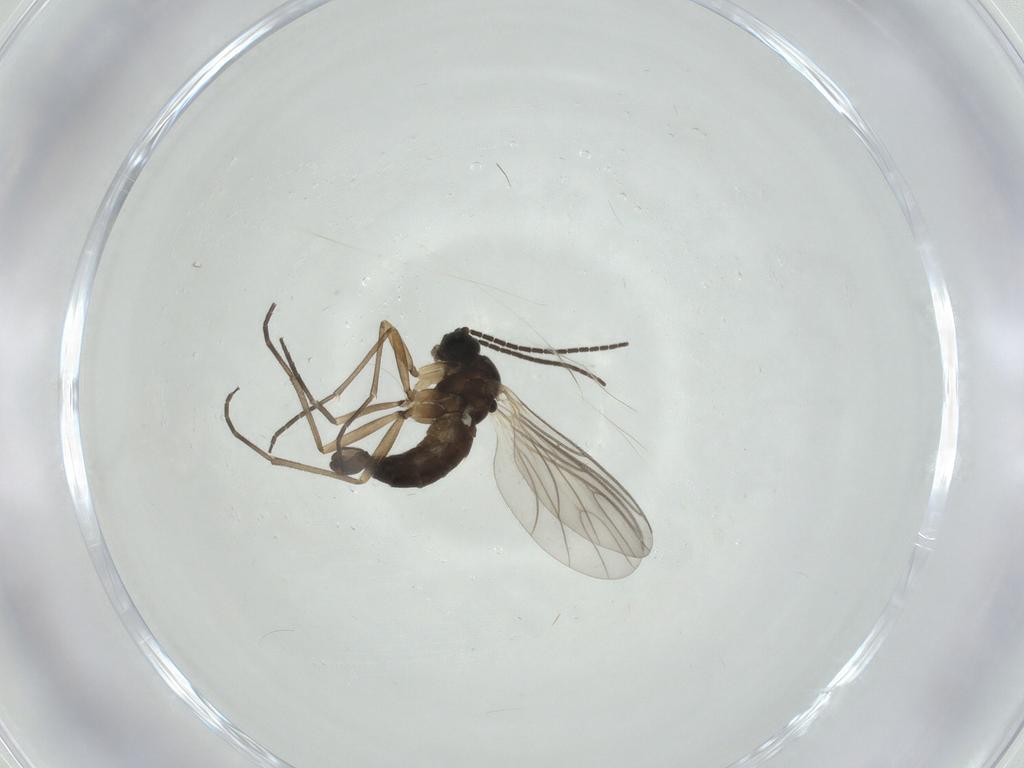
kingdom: Animalia
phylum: Arthropoda
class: Insecta
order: Diptera
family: Sciaridae
